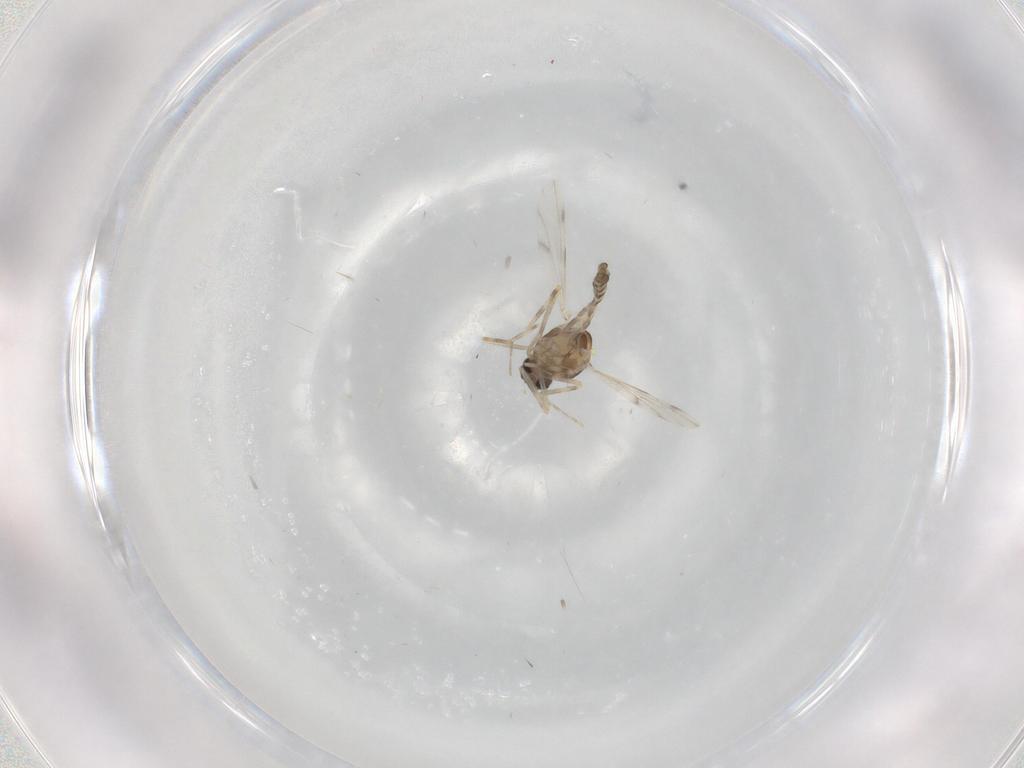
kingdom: Animalia
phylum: Arthropoda
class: Insecta
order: Diptera
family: Ceratopogonidae
